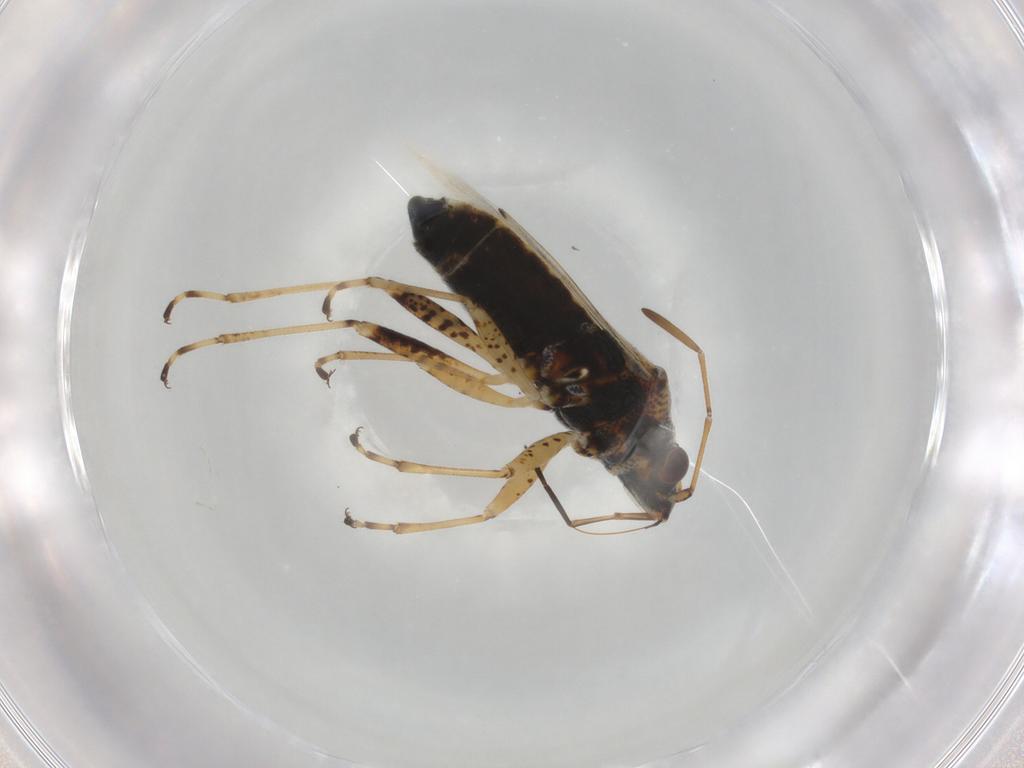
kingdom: Animalia
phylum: Arthropoda
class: Insecta
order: Hemiptera
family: Lygaeidae
